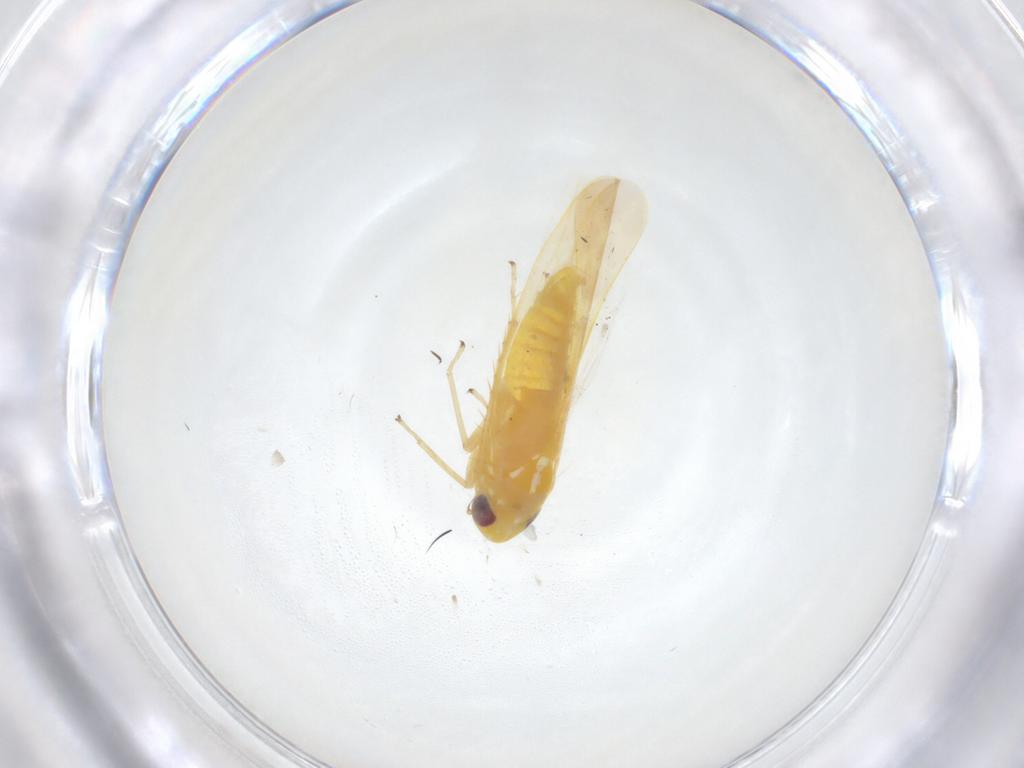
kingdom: Animalia
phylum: Arthropoda
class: Insecta
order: Hemiptera
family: Cicadellidae
